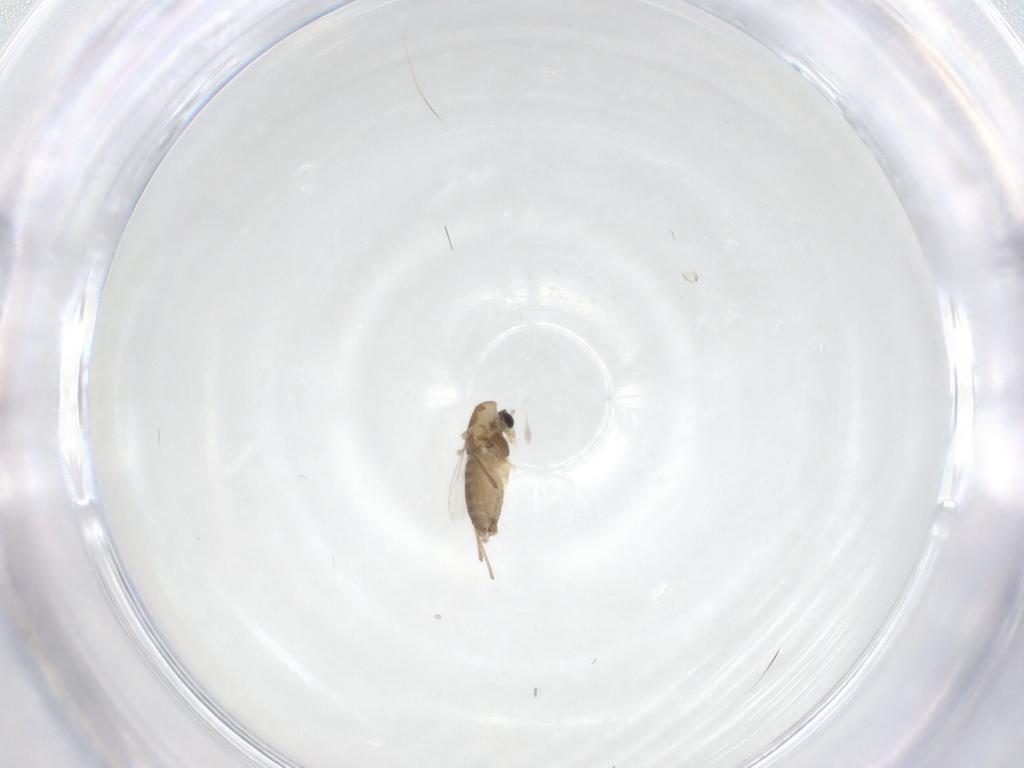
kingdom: Animalia
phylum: Arthropoda
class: Insecta
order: Diptera
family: Chironomidae
